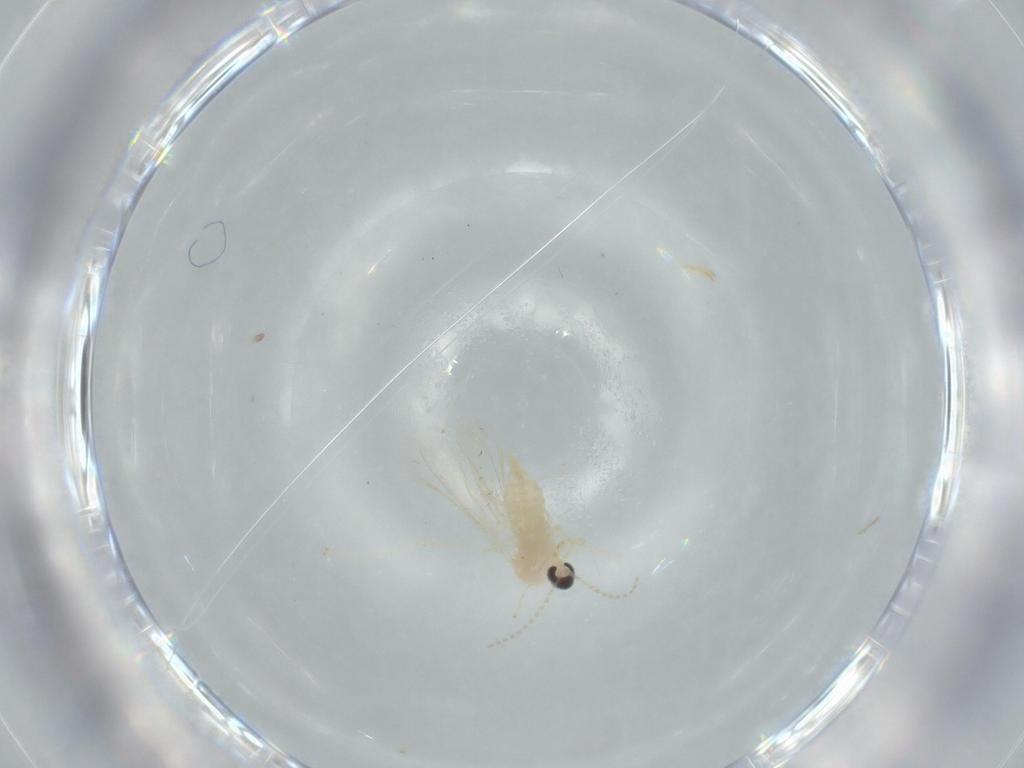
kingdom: Animalia
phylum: Arthropoda
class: Insecta
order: Diptera
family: Cecidomyiidae
